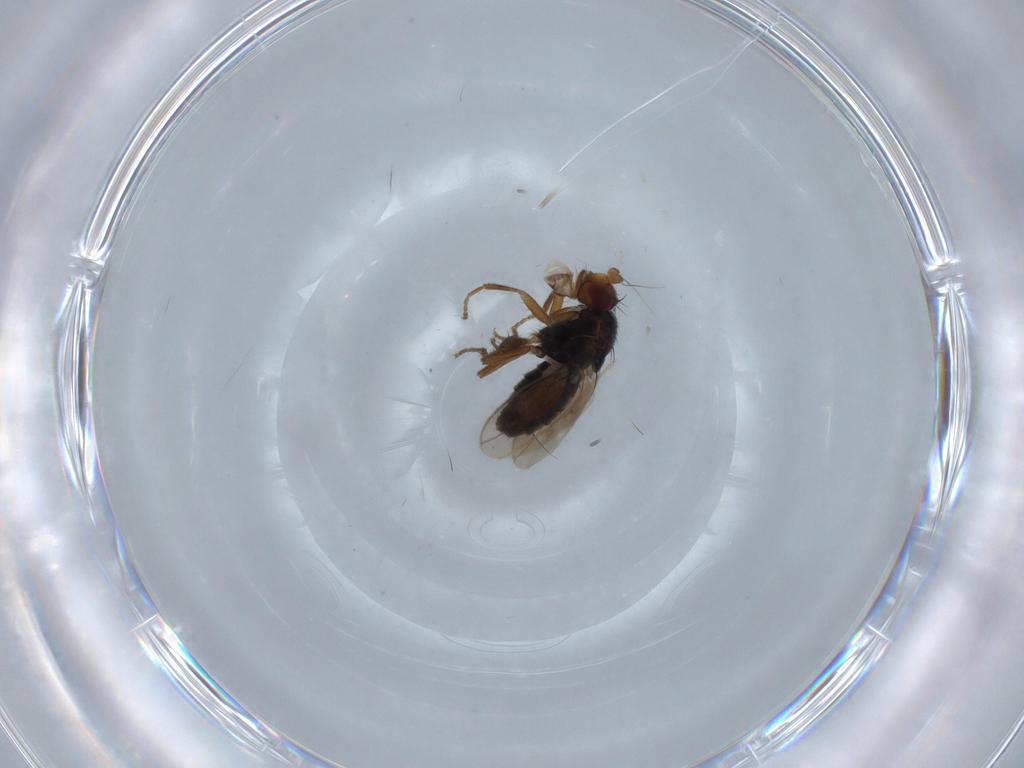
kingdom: Animalia
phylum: Arthropoda
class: Insecta
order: Diptera
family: Sphaeroceridae
